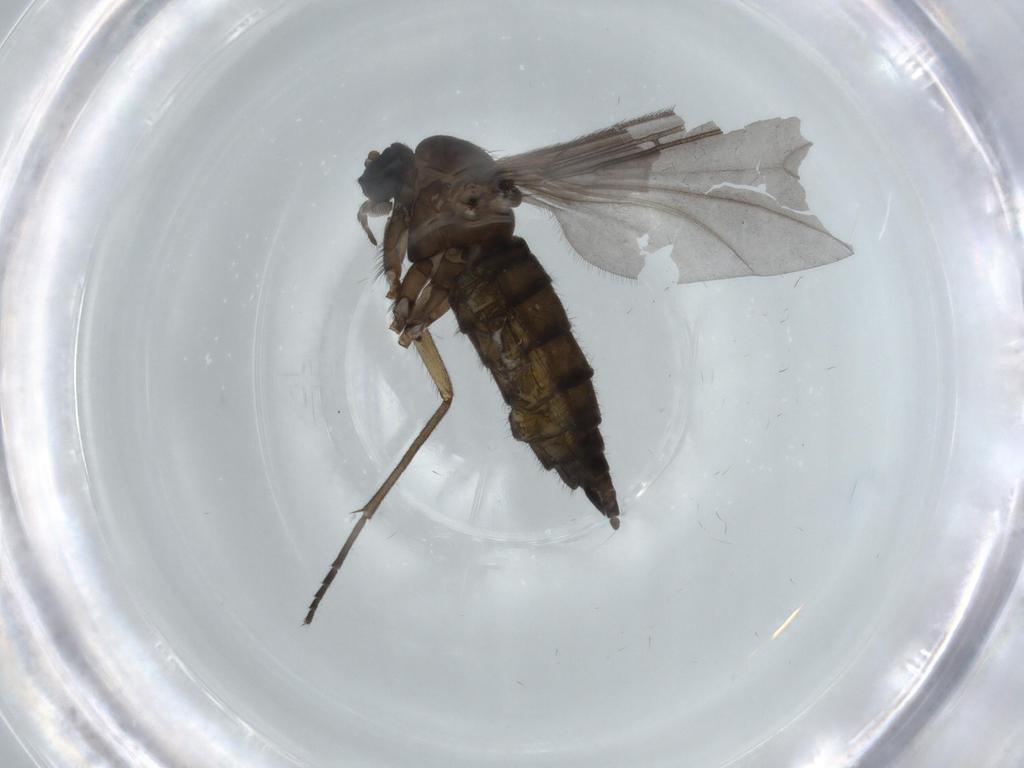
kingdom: Animalia
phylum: Arthropoda
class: Insecta
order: Diptera
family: Sciaridae
